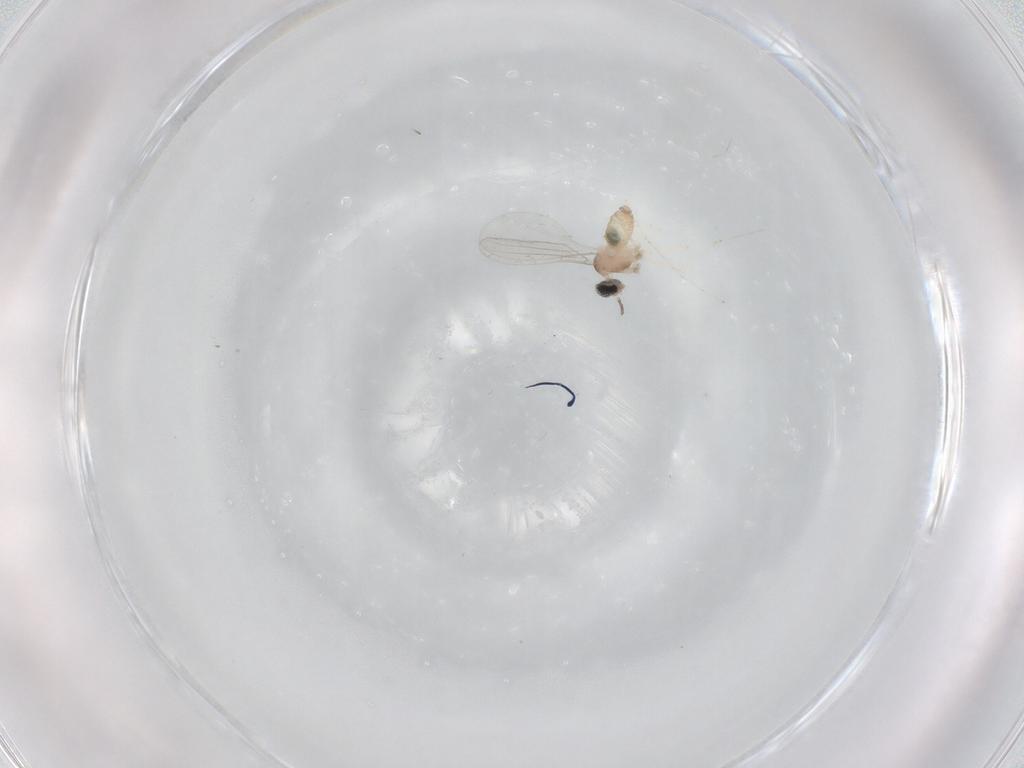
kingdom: Animalia
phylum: Arthropoda
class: Insecta
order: Diptera
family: Cecidomyiidae
